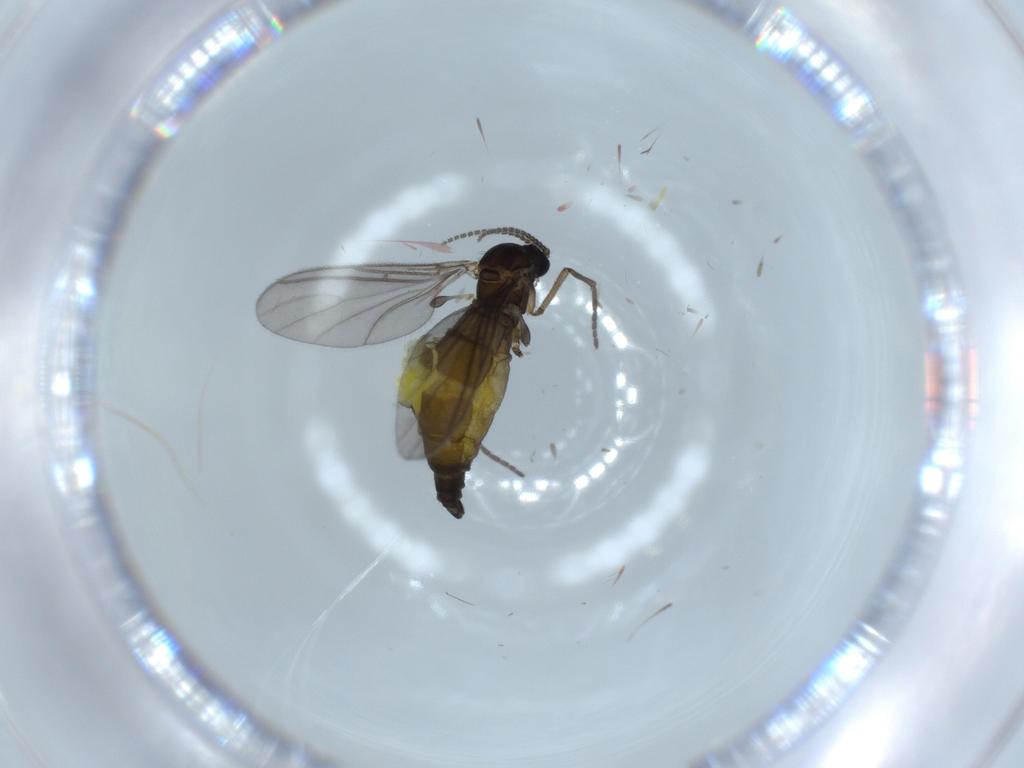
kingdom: Animalia
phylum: Arthropoda
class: Insecta
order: Diptera
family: Sciaridae
